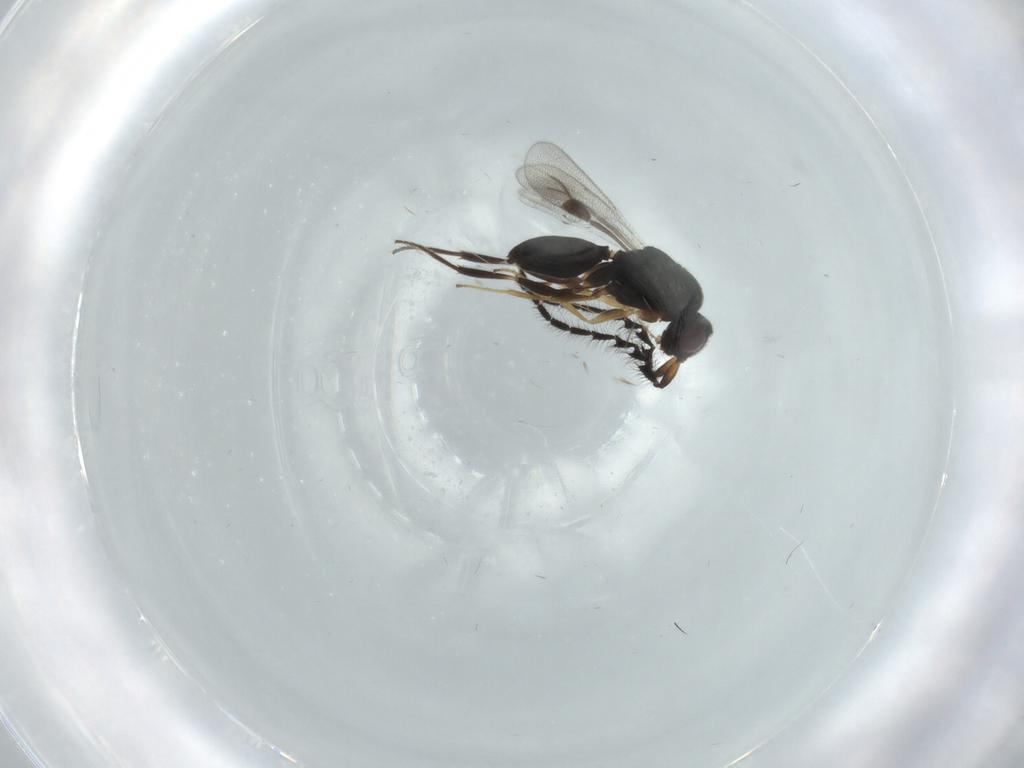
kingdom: Animalia
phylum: Arthropoda
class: Insecta
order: Hymenoptera
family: Megaspilidae
